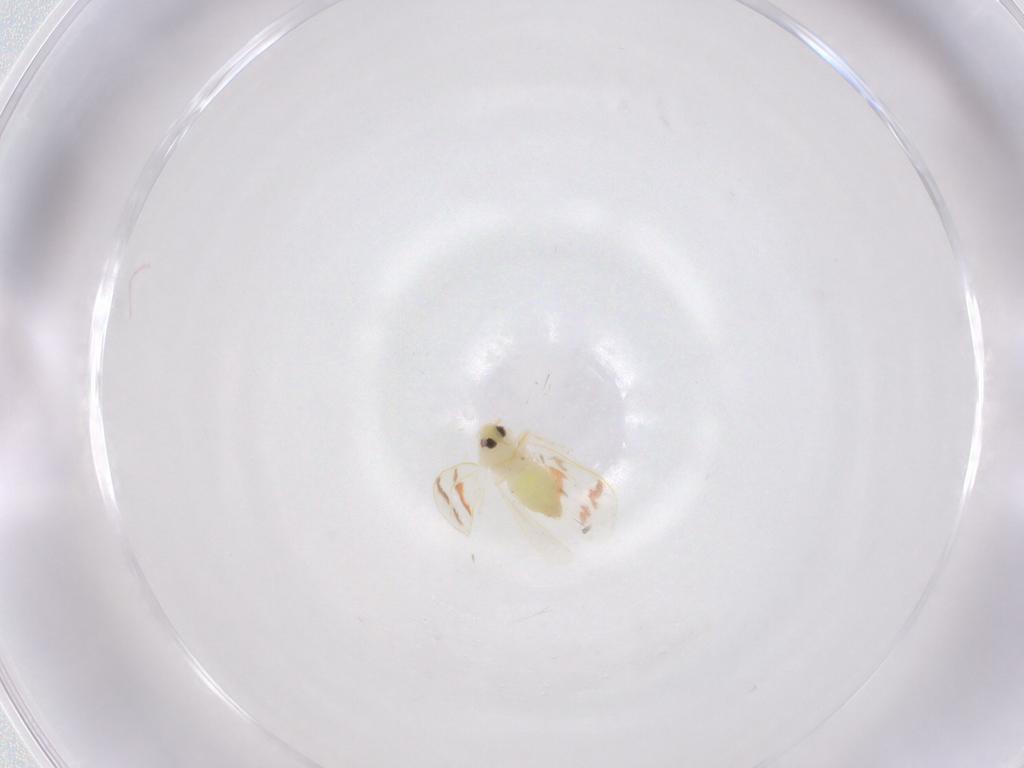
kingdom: Animalia
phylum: Arthropoda
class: Insecta
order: Hemiptera
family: Aleyrodidae
